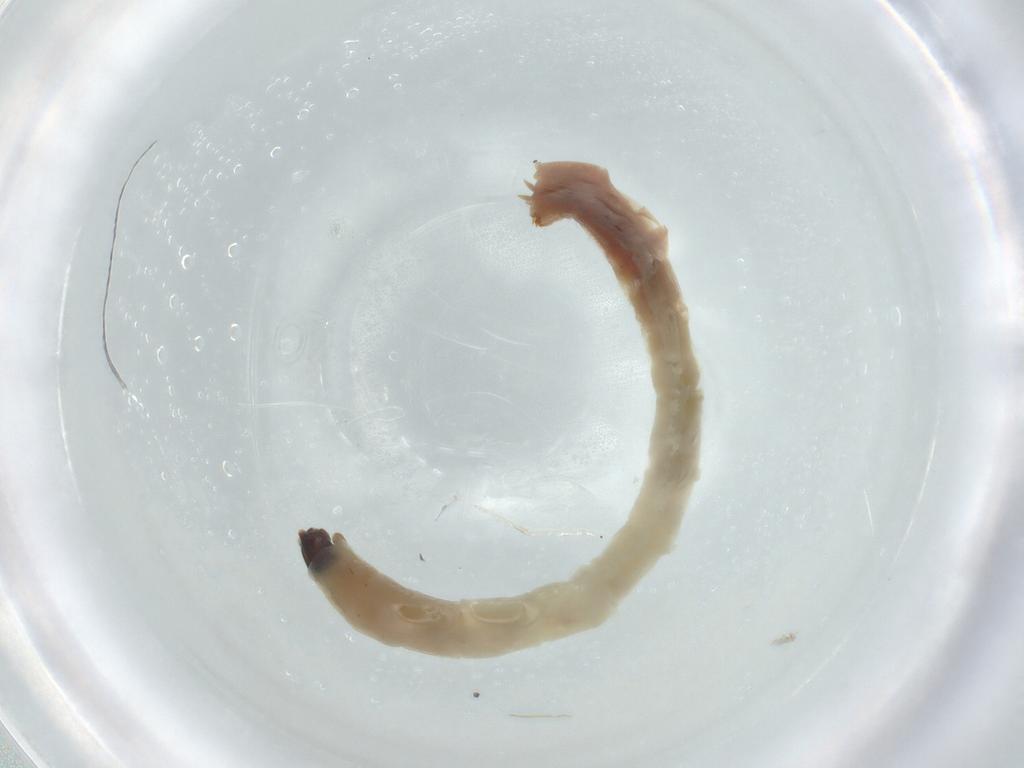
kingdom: Animalia
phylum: Arthropoda
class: Insecta
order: Diptera
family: Chironomidae
